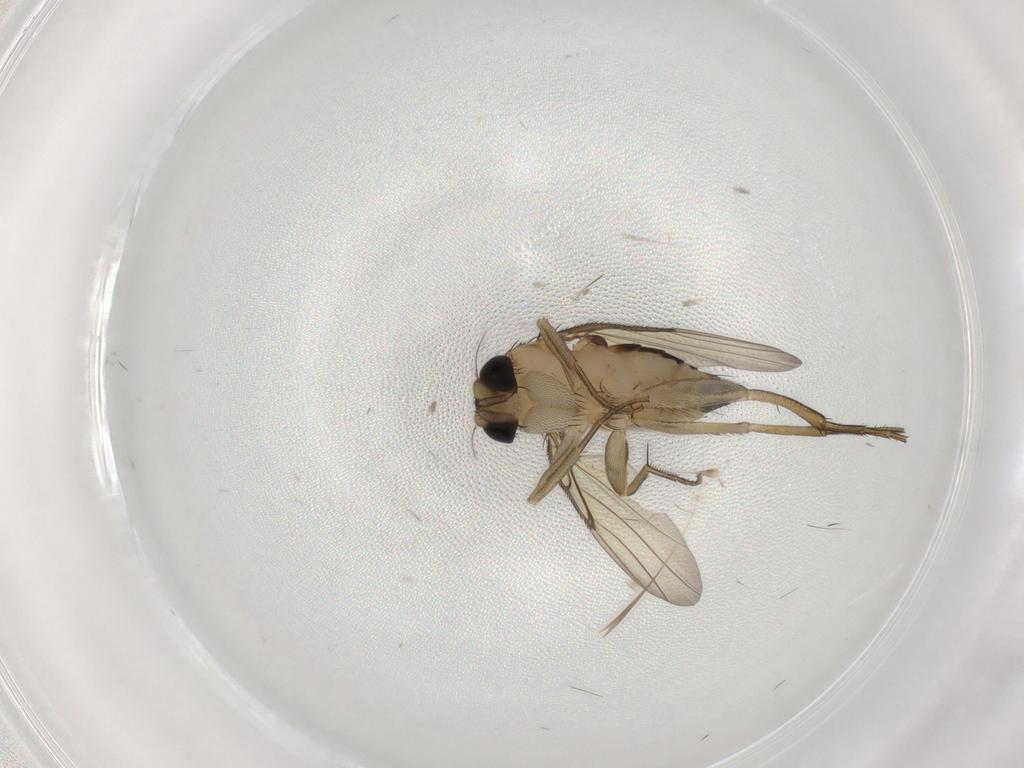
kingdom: Animalia
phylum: Arthropoda
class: Insecta
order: Diptera
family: Phoridae
